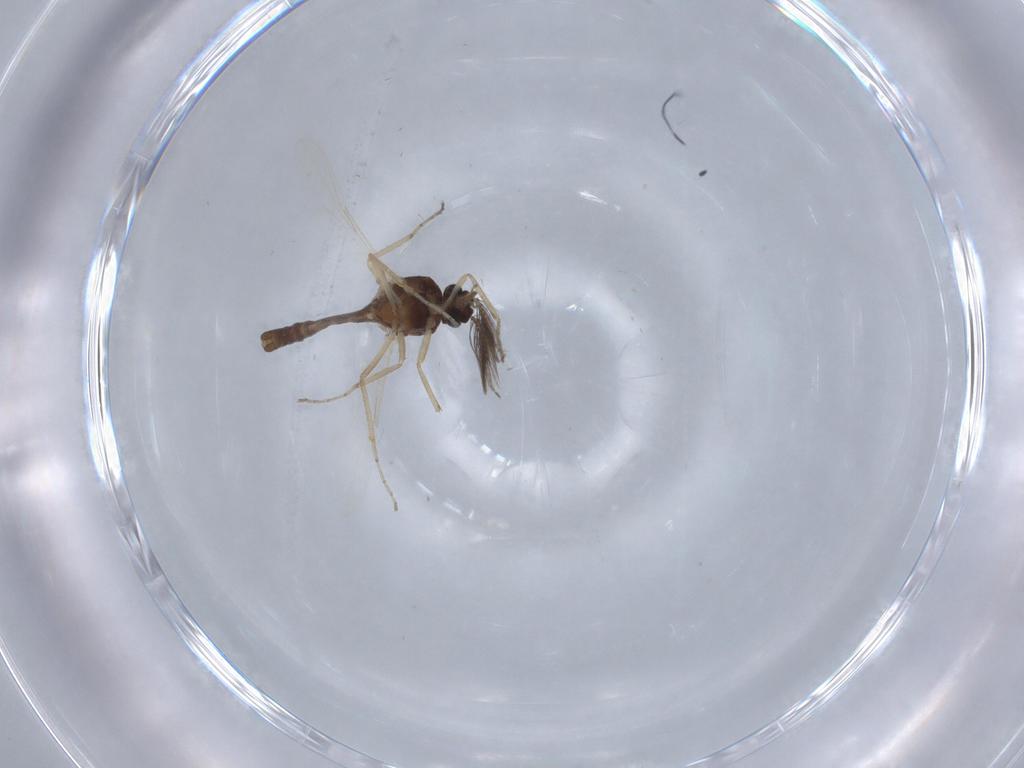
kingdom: Animalia
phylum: Arthropoda
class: Insecta
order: Diptera
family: Ceratopogonidae
